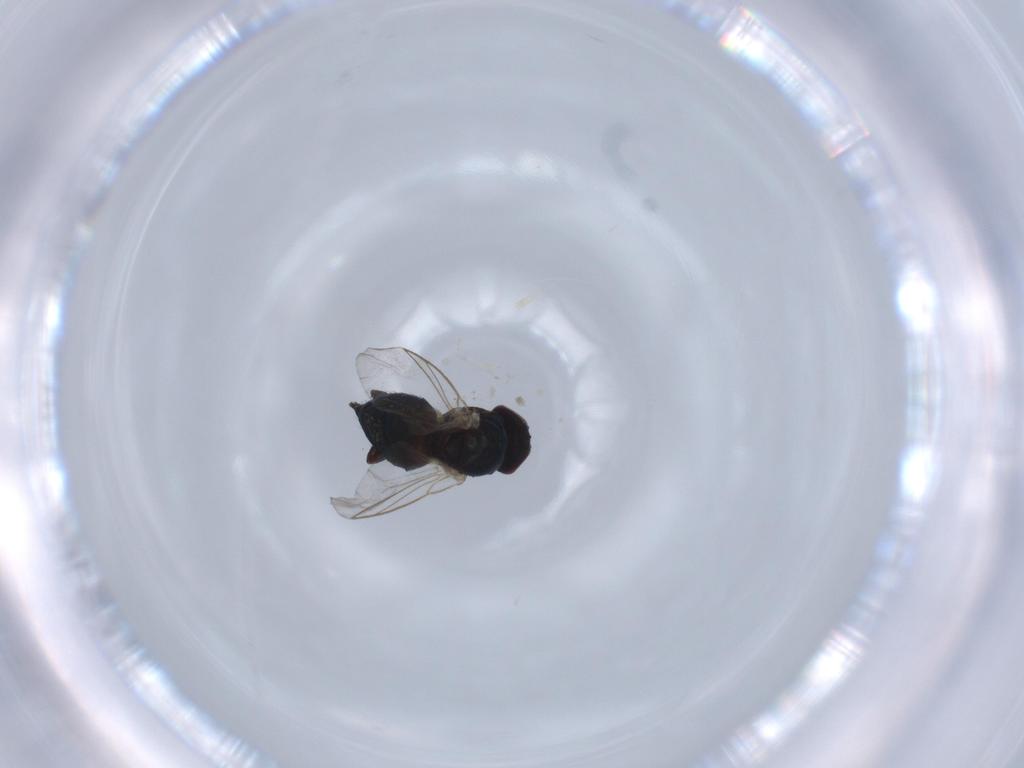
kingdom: Animalia
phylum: Arthropoda
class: Insecta
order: Diptera
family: Agromyzidae
